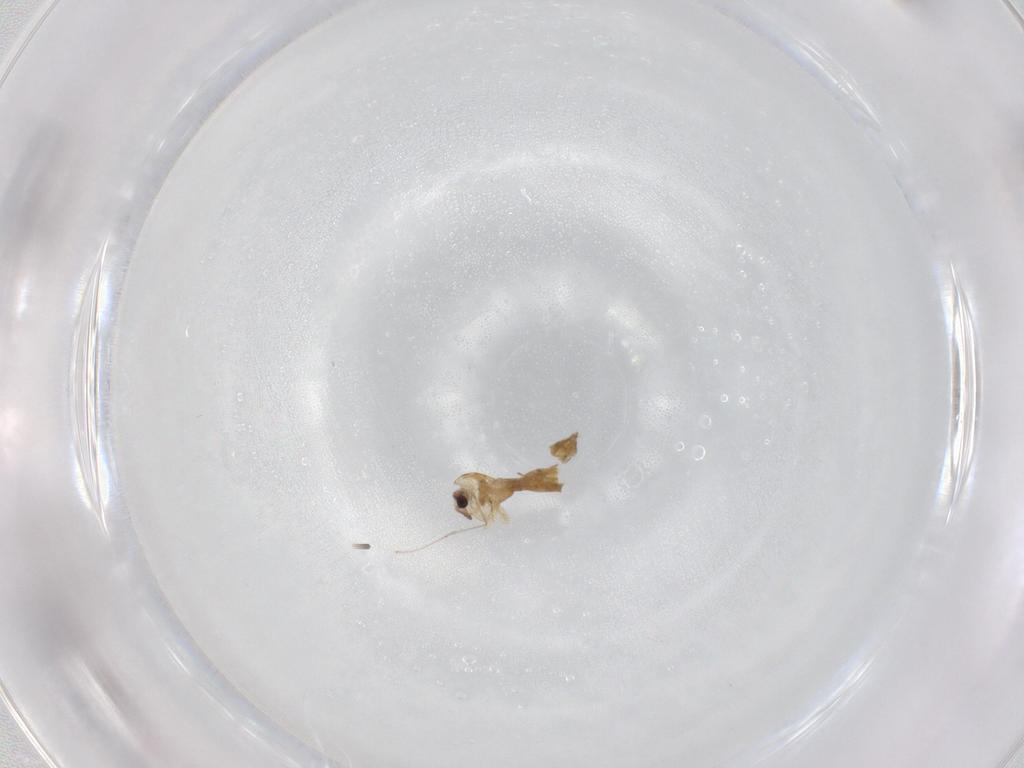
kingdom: Animalia
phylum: Arthropoda
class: Insecta
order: Diptera
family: Chironomidae
